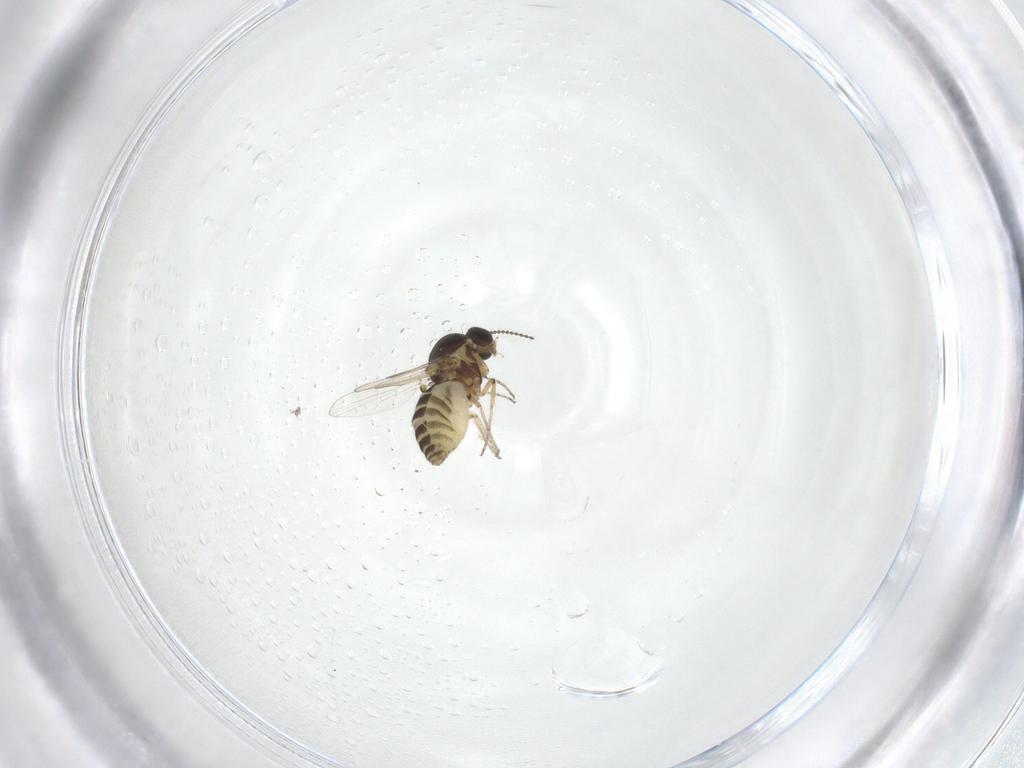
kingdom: Animalia
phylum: Arthropoda
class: Insecta
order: Diptera
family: Ceratopogonidae
